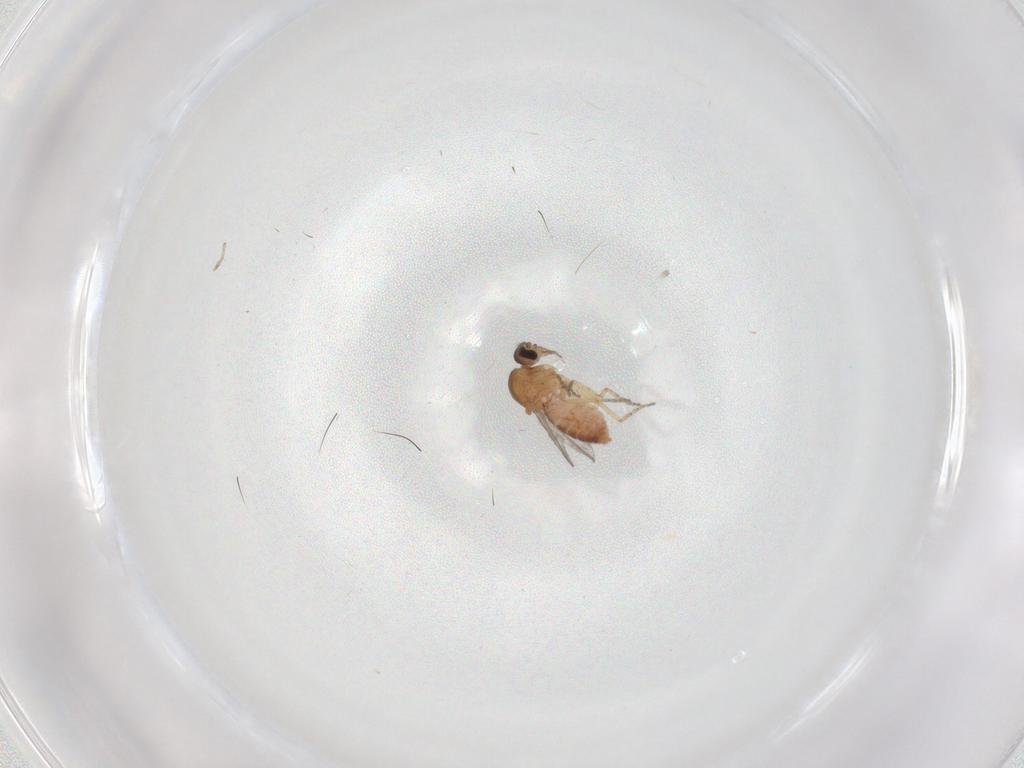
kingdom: Animalia
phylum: Arthropoda
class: Insecta
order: Diptera
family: Ceratopogonidae
